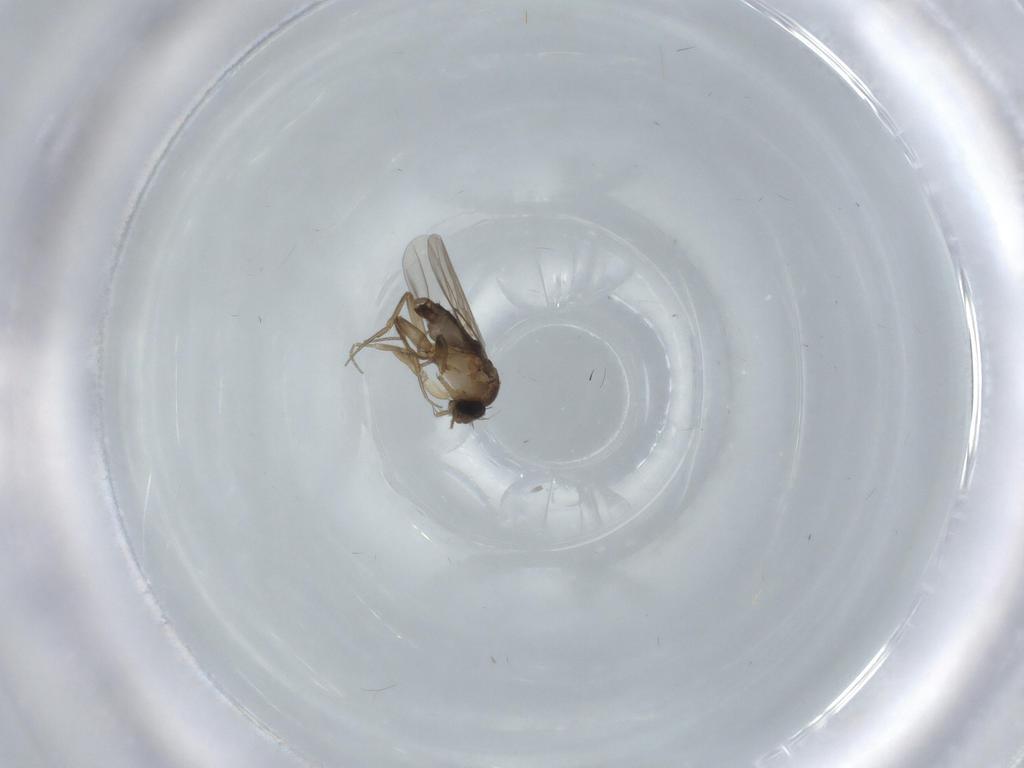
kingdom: Animalia
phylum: Arthropoda
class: Insecta
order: Diptera
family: Phoridae
